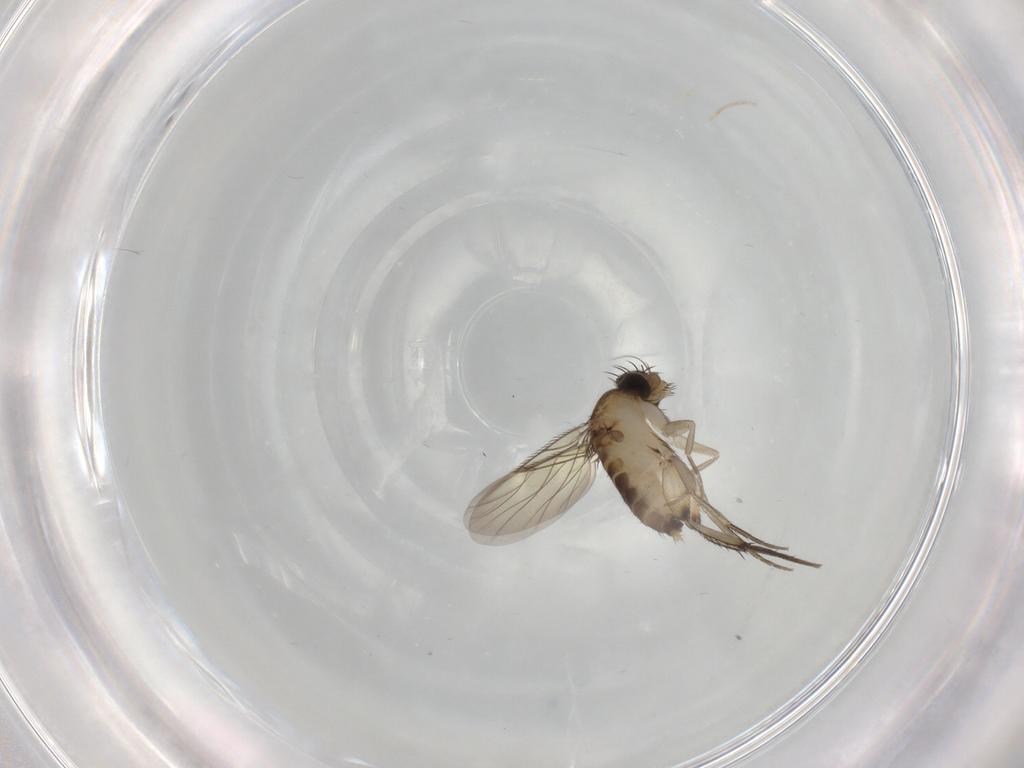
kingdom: Animalia
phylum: Arthropoda
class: Insecta
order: Diptera
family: Phoridae
